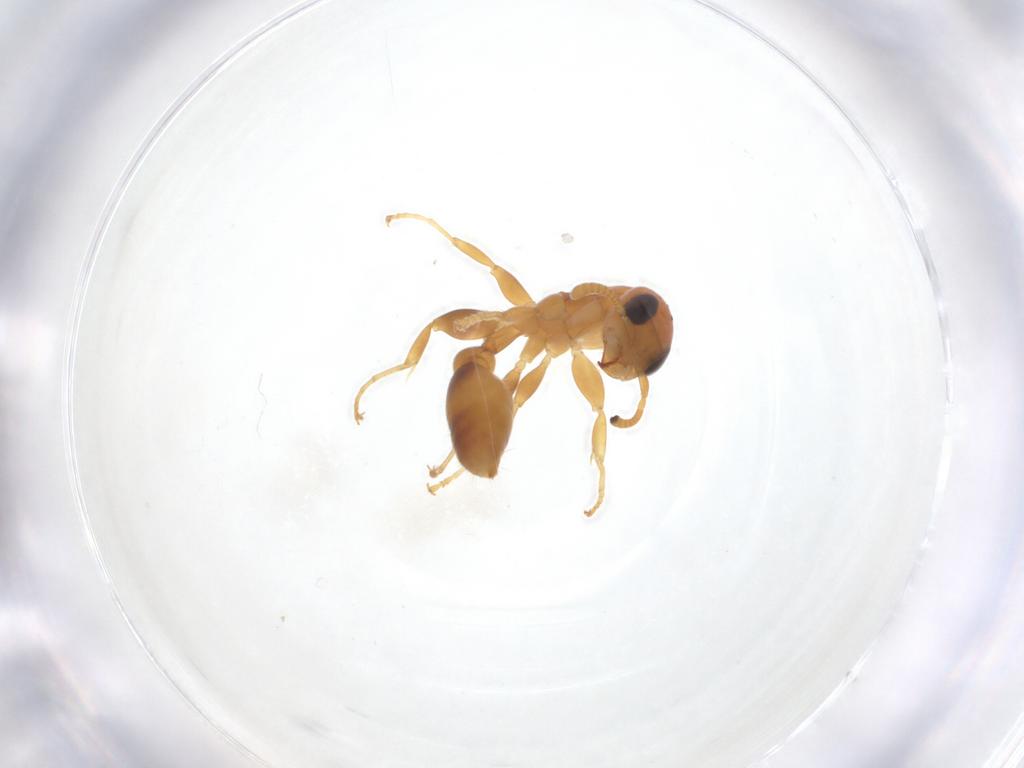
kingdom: Animalia
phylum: Arthropoda
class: Insecta
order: Hymenoptera
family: Formicidae
